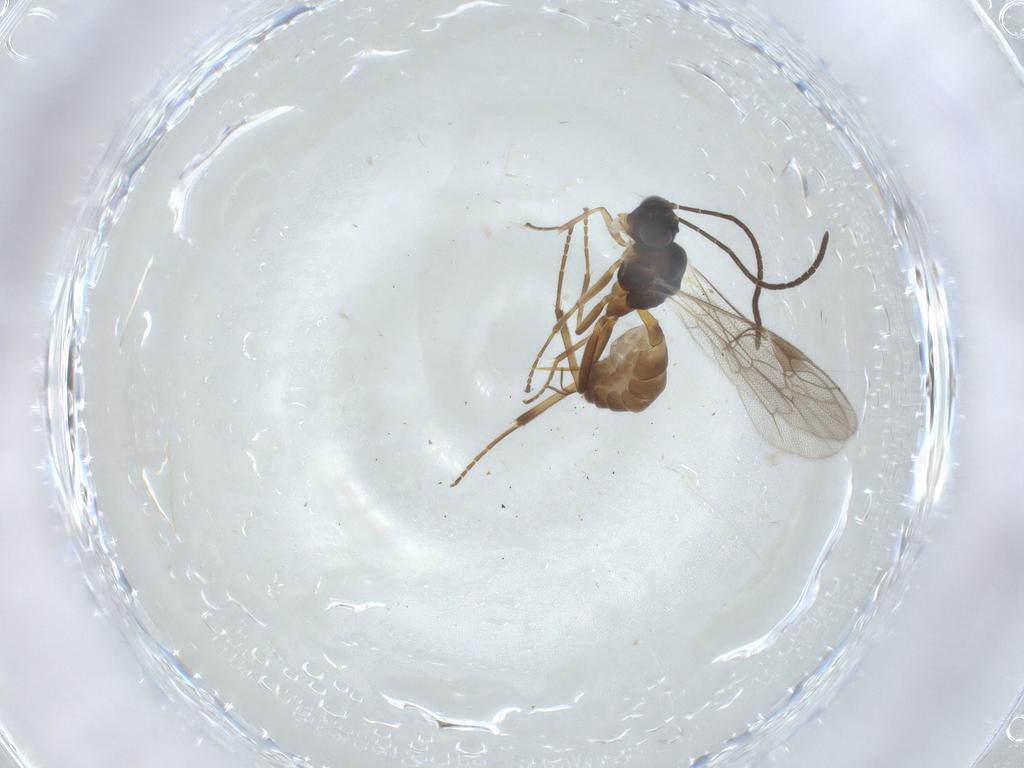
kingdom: Animalia
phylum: Arthropoda
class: Insecta
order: Hymenoptera
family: Ichneumonidae
